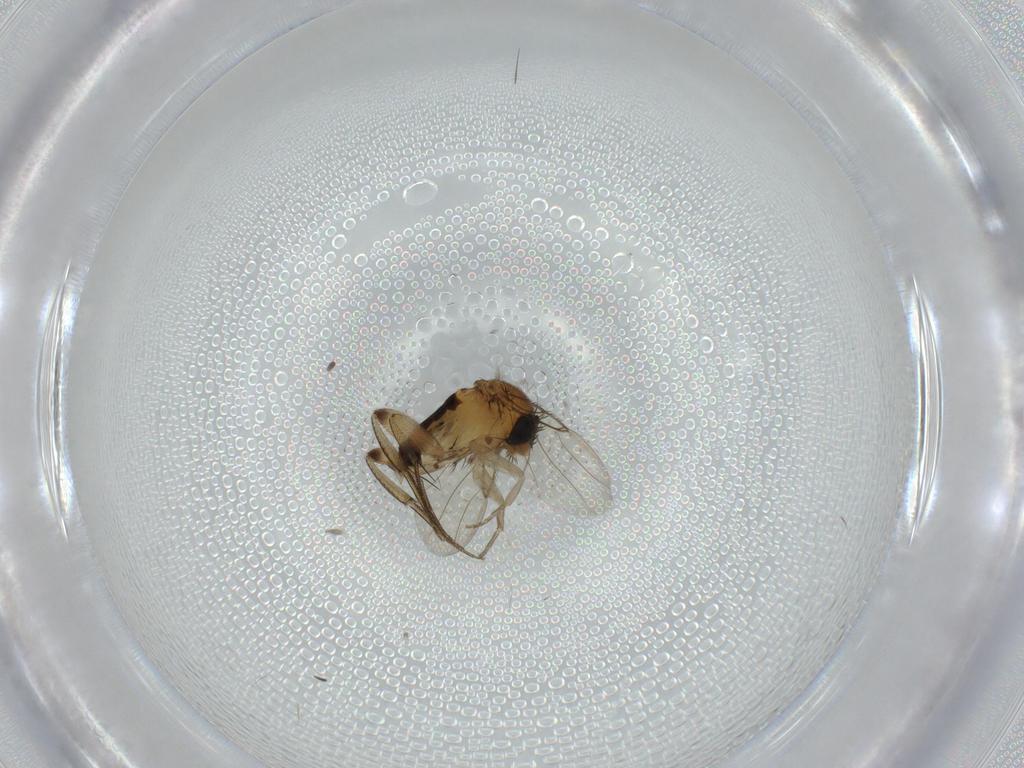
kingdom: Animalia
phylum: Arthropoda
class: Insecta
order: Diptera
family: Phoridae
